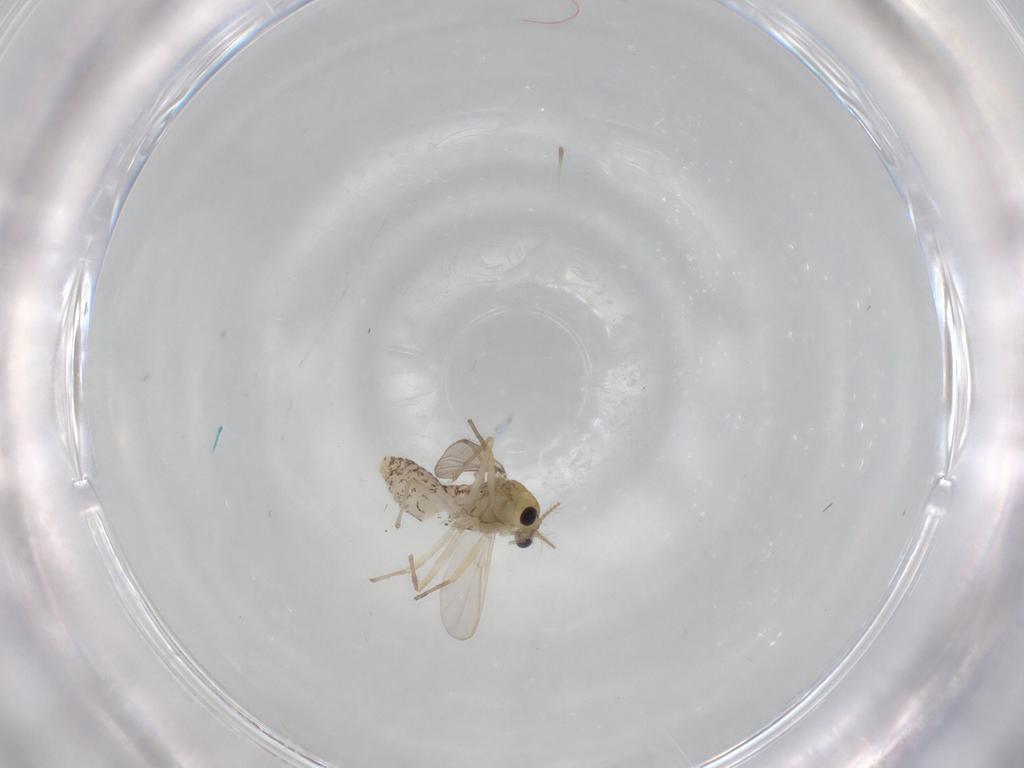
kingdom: Animalia
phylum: Arthropoda
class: Insecta
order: Diptera
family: Chironomidae
